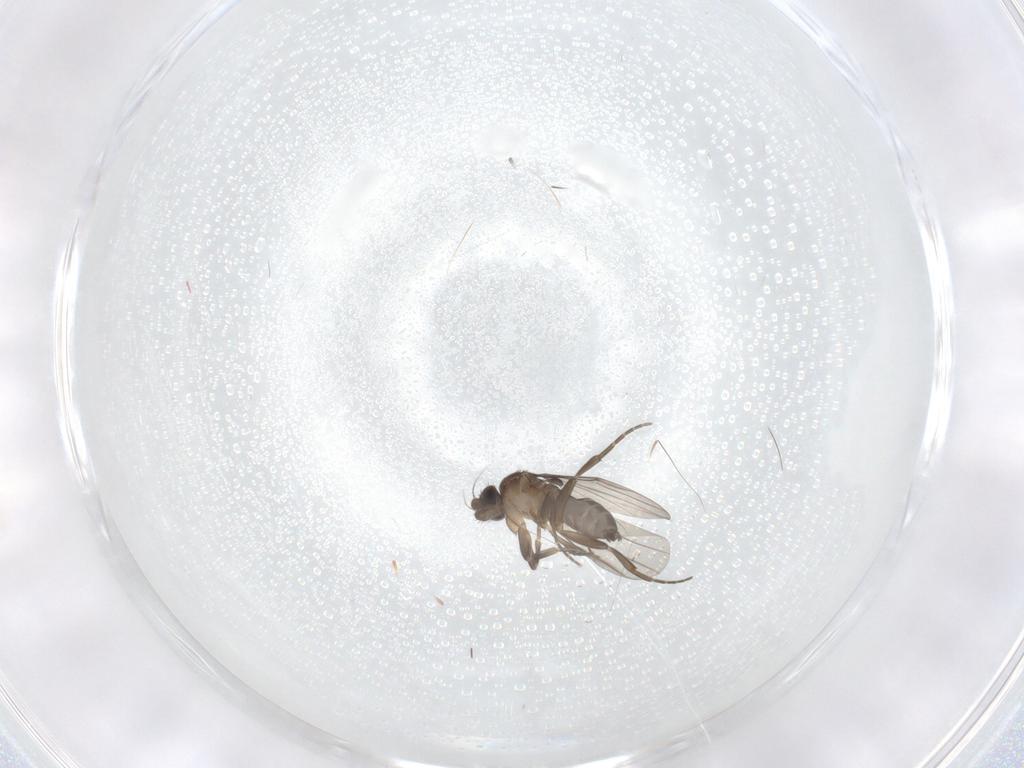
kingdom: Animalia
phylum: Arthropoda
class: Insecta
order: Diptera
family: Phoridae
